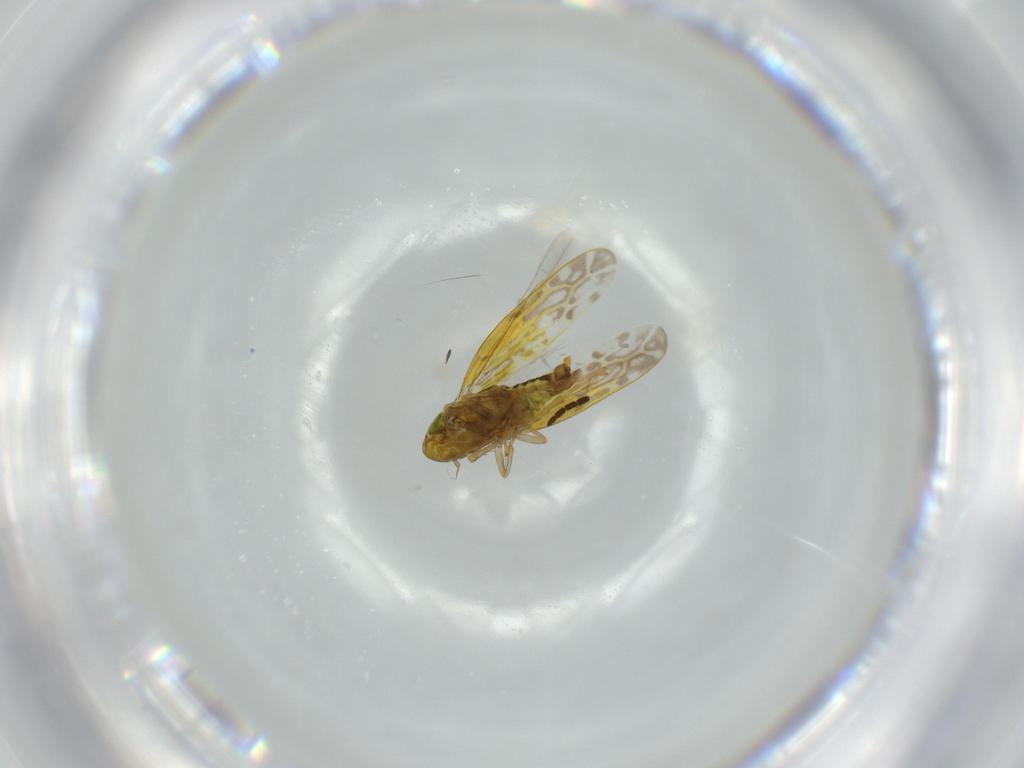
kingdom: Animalia
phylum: Arthropoda
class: Insecta
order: Hemiptera
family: Cicadellidae
